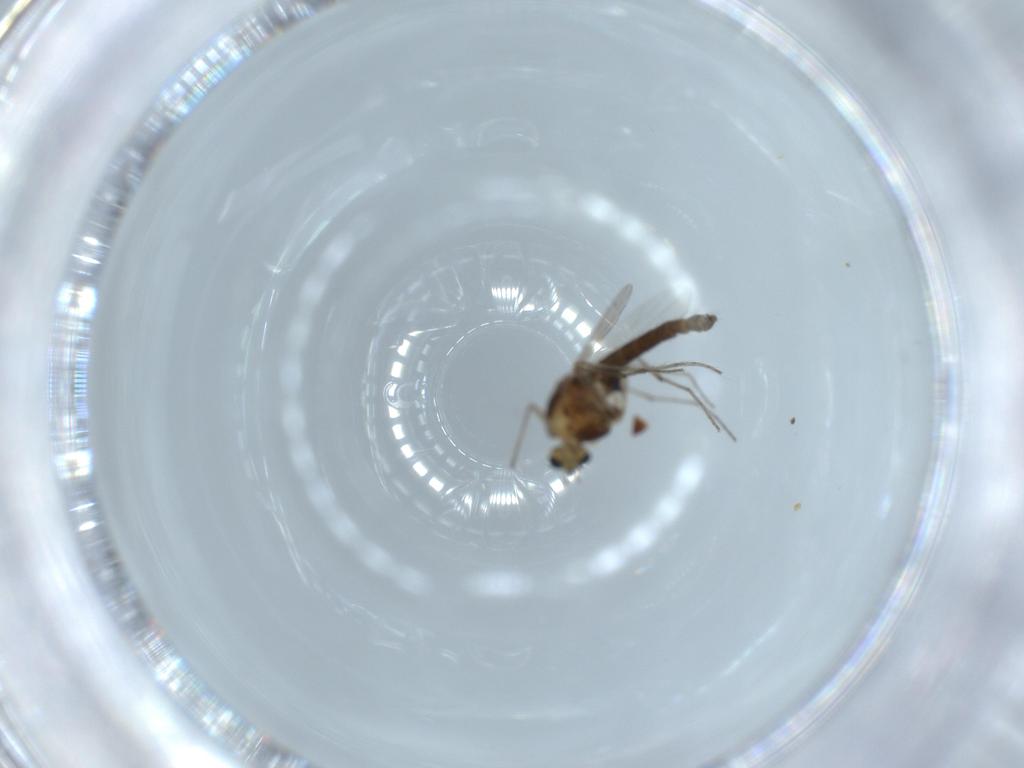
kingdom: Animalia
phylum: Arthropoda
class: Insecta
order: Diptera
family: Chironomidae
